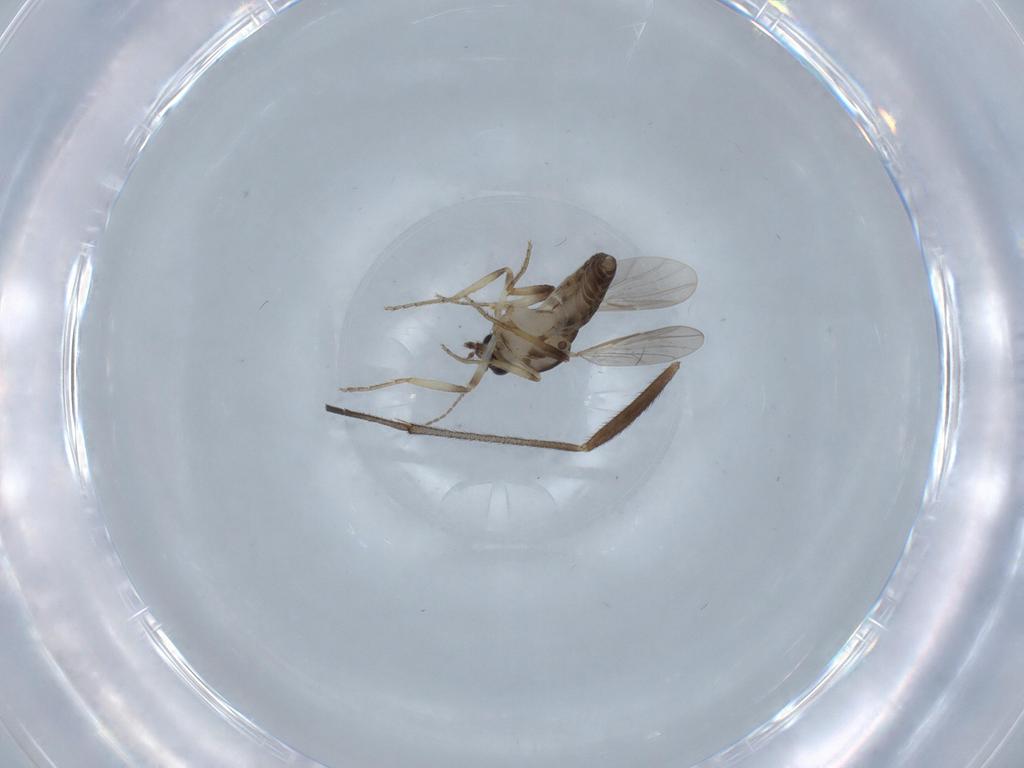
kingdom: Animalia
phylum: Arthropoda
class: Insecta
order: Diptera
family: Ceratopogonidae
